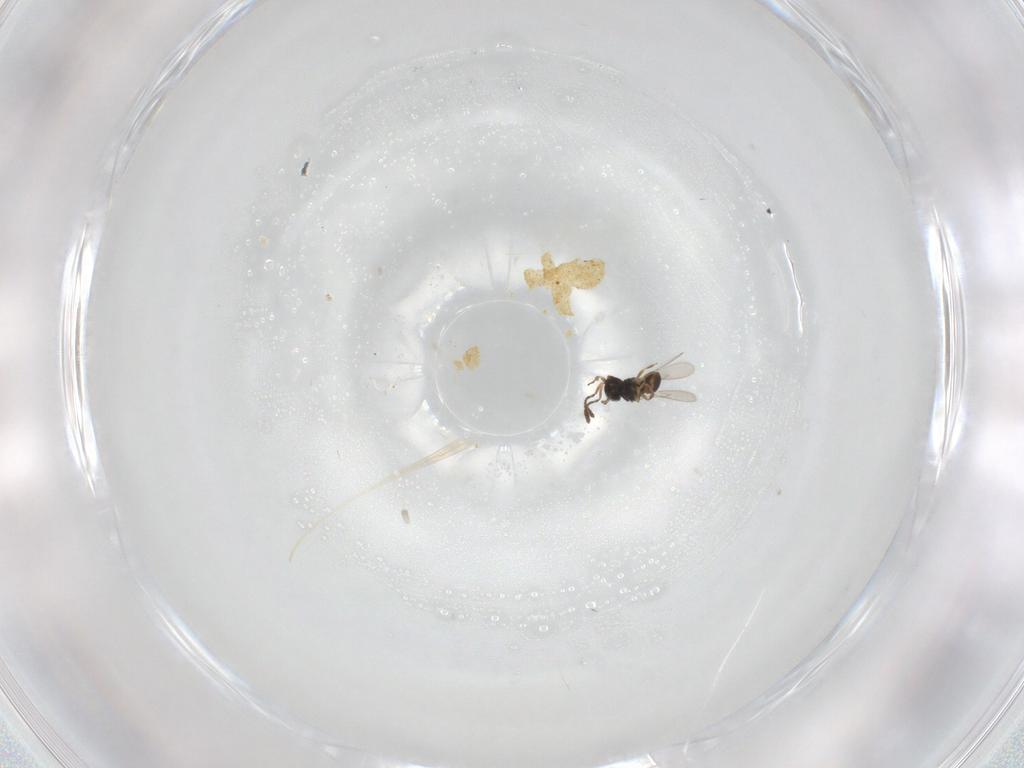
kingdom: Animalia
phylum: Arthropoda
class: Insecta
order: Hymenoptera
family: Scelionidae
